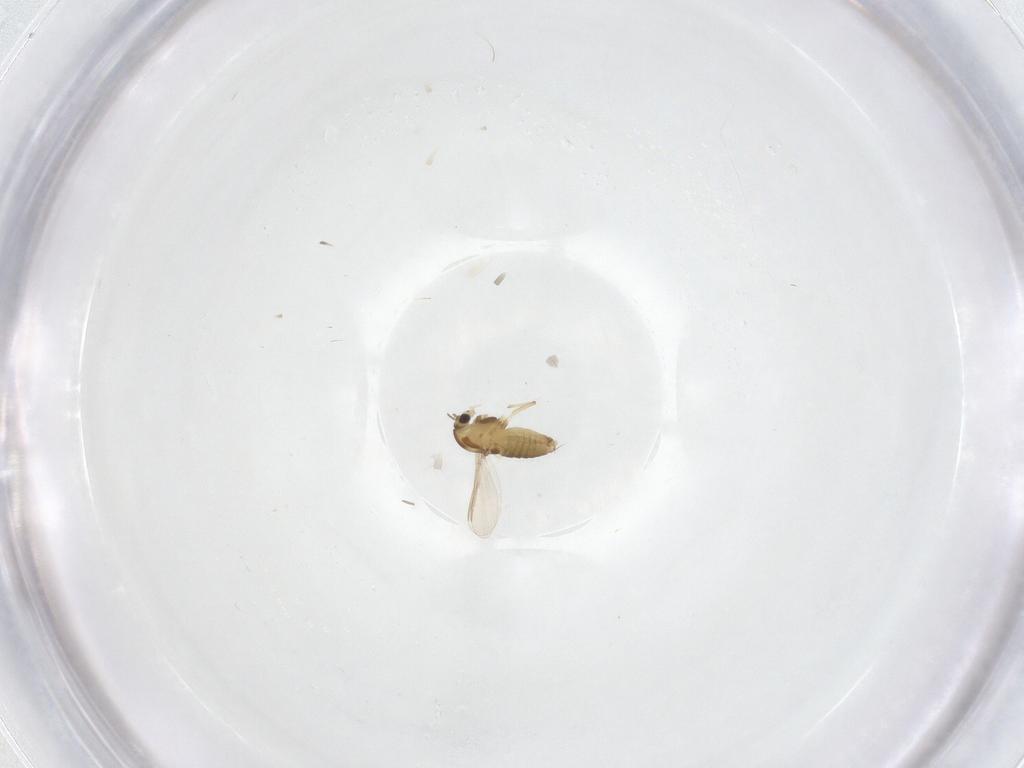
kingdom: Animalia
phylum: Arthropoda
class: Insecta
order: Diptera
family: Chironomidae
